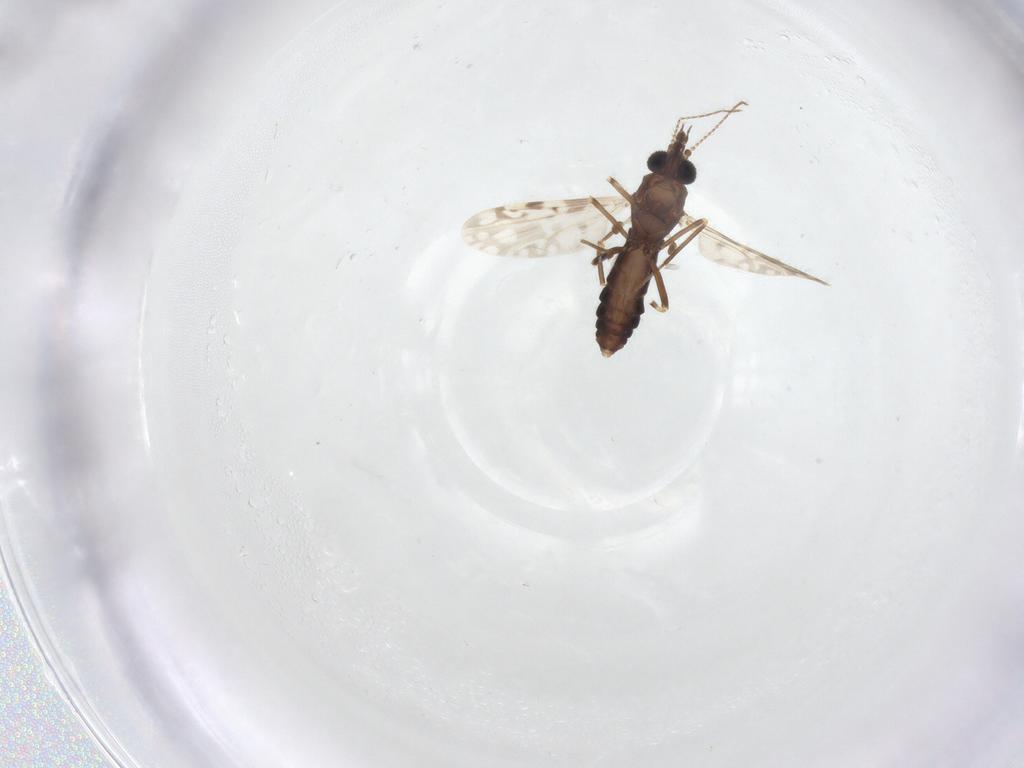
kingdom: Animalia
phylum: Arthropoda
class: Insecta
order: Diptera
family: Ceratopogonidae
